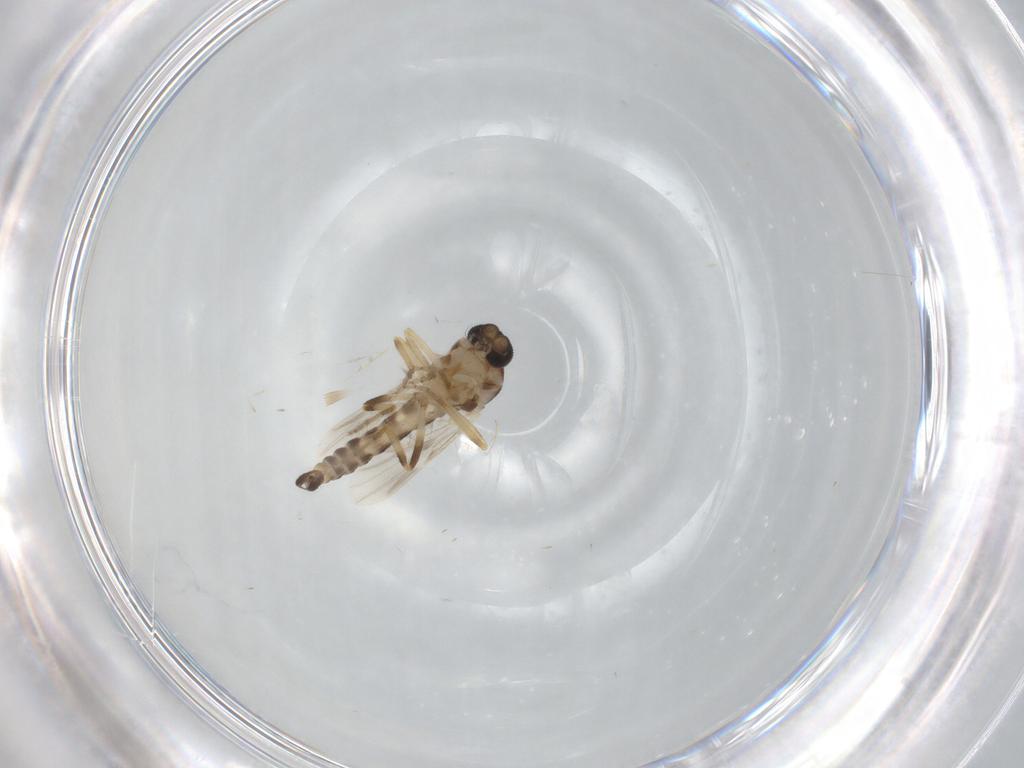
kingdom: Animalia
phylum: Arthropoda
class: Insecta
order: Diptera
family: Ceratopogonidae
